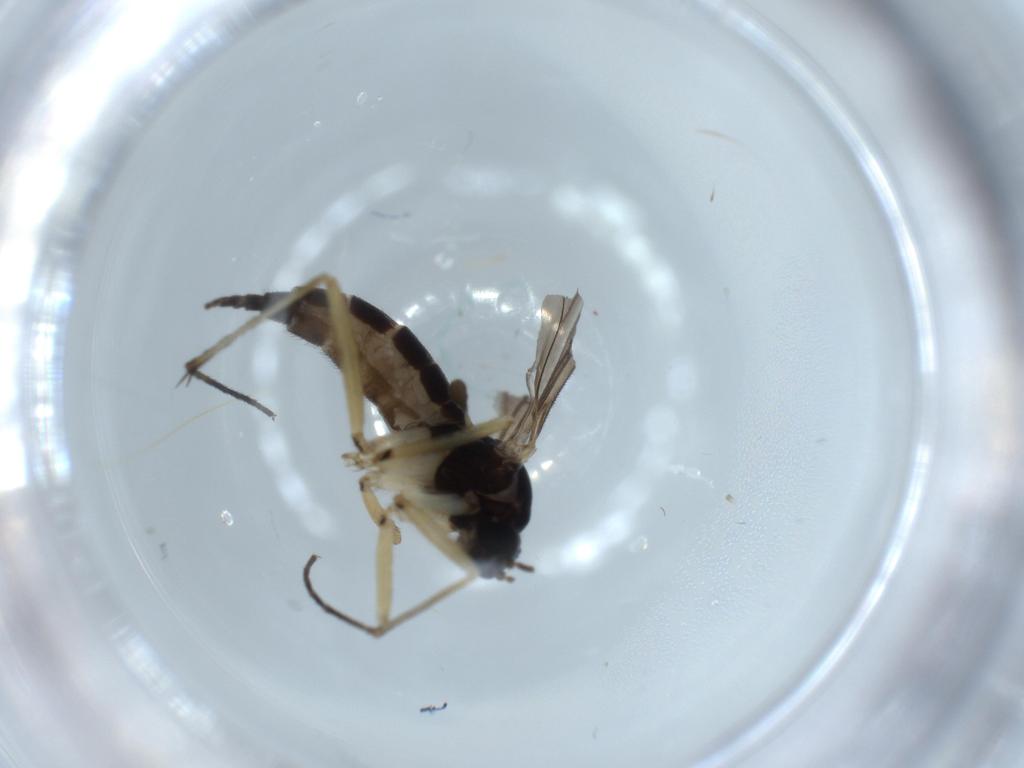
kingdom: Animalia
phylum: Arthropoda
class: Insecta
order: Diptera
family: Sciaridae
